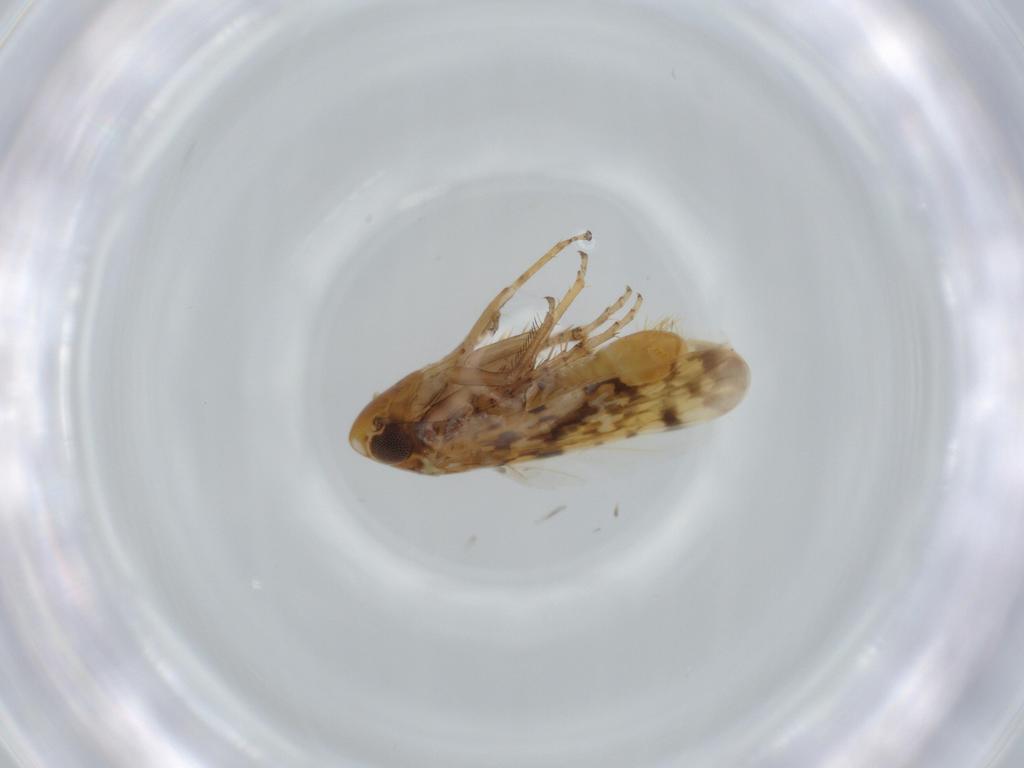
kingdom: Animalia
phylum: Arthropoda
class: Insecta
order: Hemiptera
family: Cicadellidae
